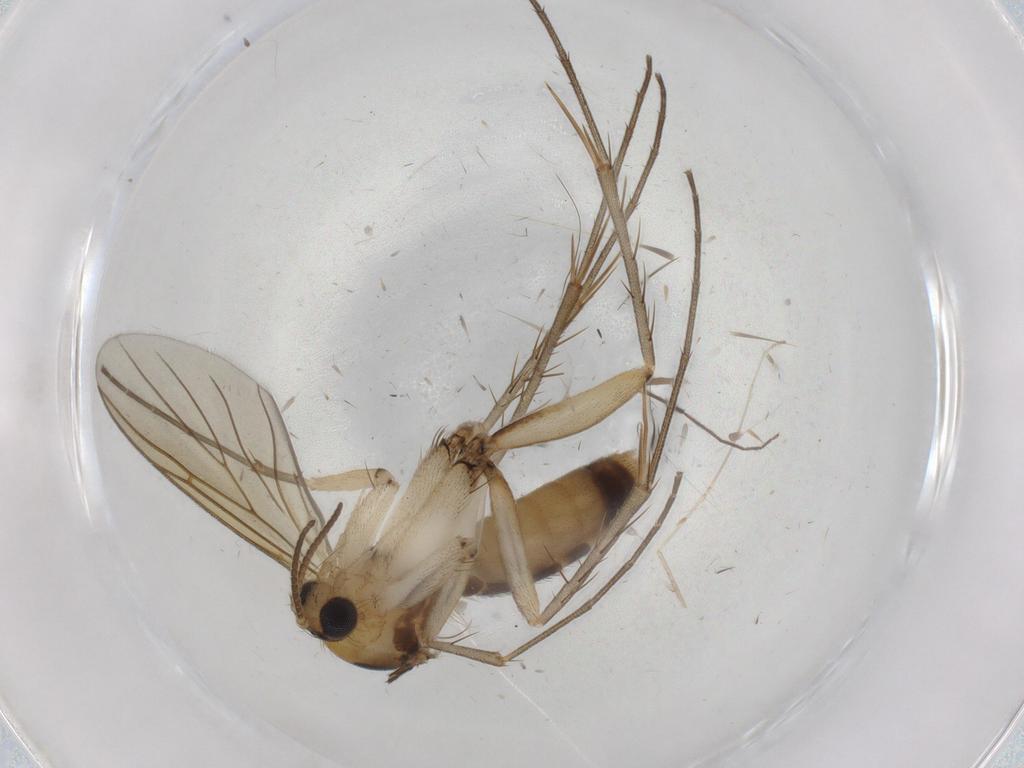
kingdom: Animalia
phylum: Arthropoda
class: Insecta
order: Diptera
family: Mycetophilidae
